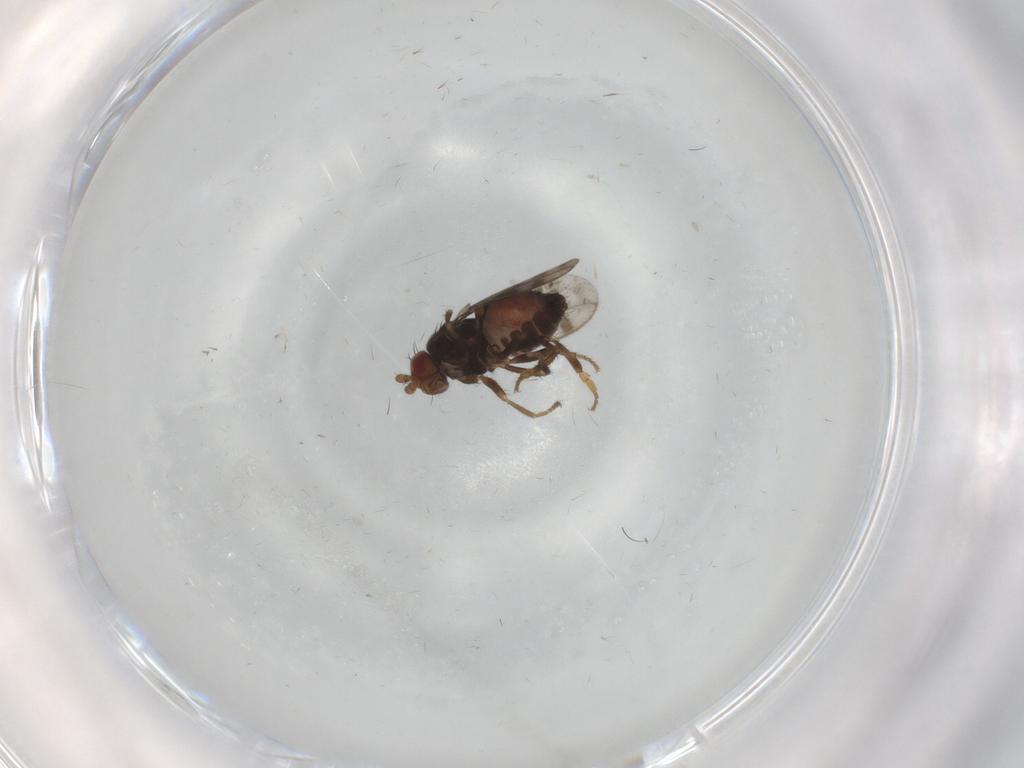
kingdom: Animalia
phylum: Arthropoda
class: Insecta
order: Diptera
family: Sphaeroceridae
